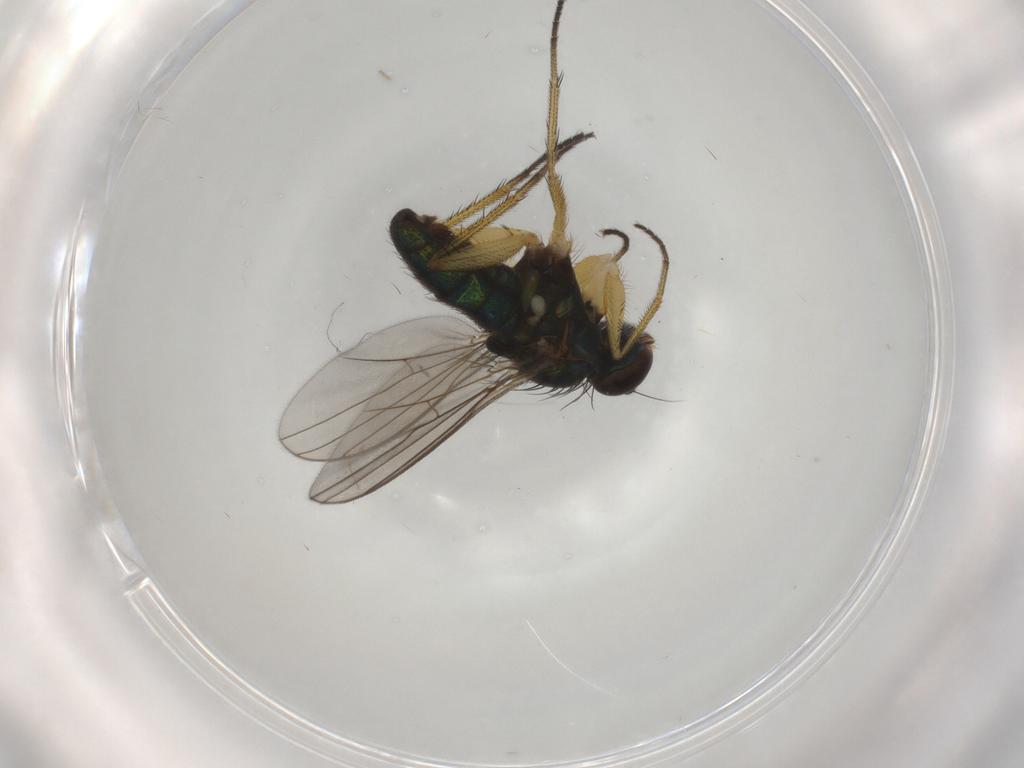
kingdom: Animalia
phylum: Arthropoda
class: Insecta
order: Diptera
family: Dolichopodidae
